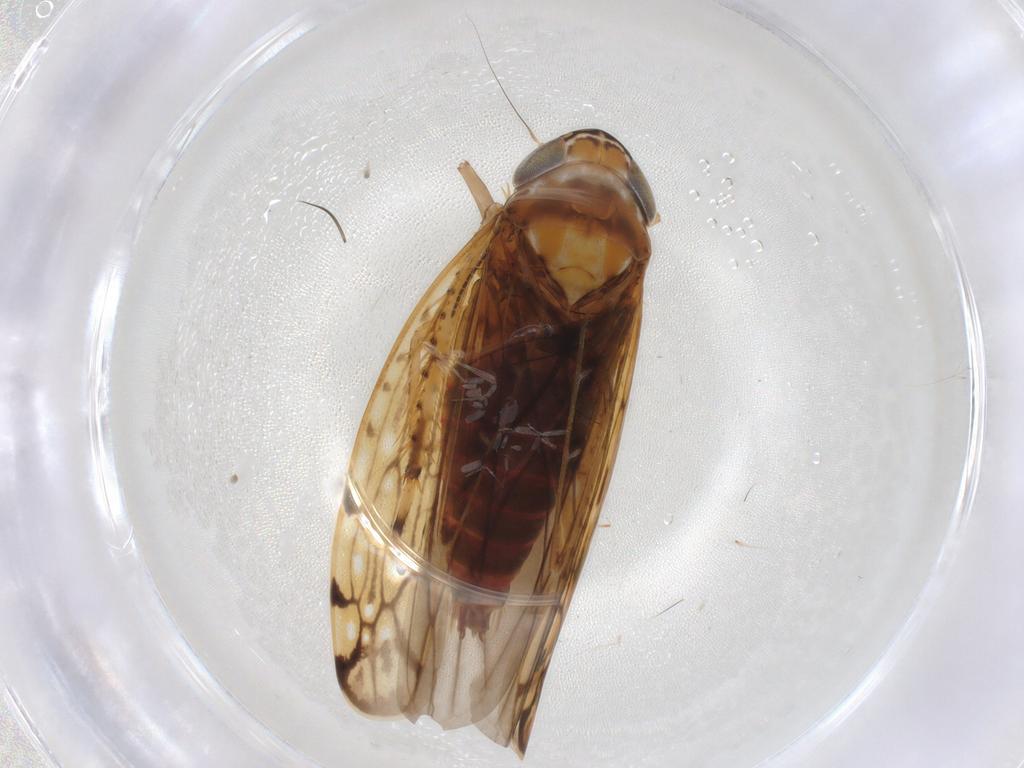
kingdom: Animalia
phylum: Arthropoda
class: Insecta
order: Hemiptera
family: Cicadellidae
